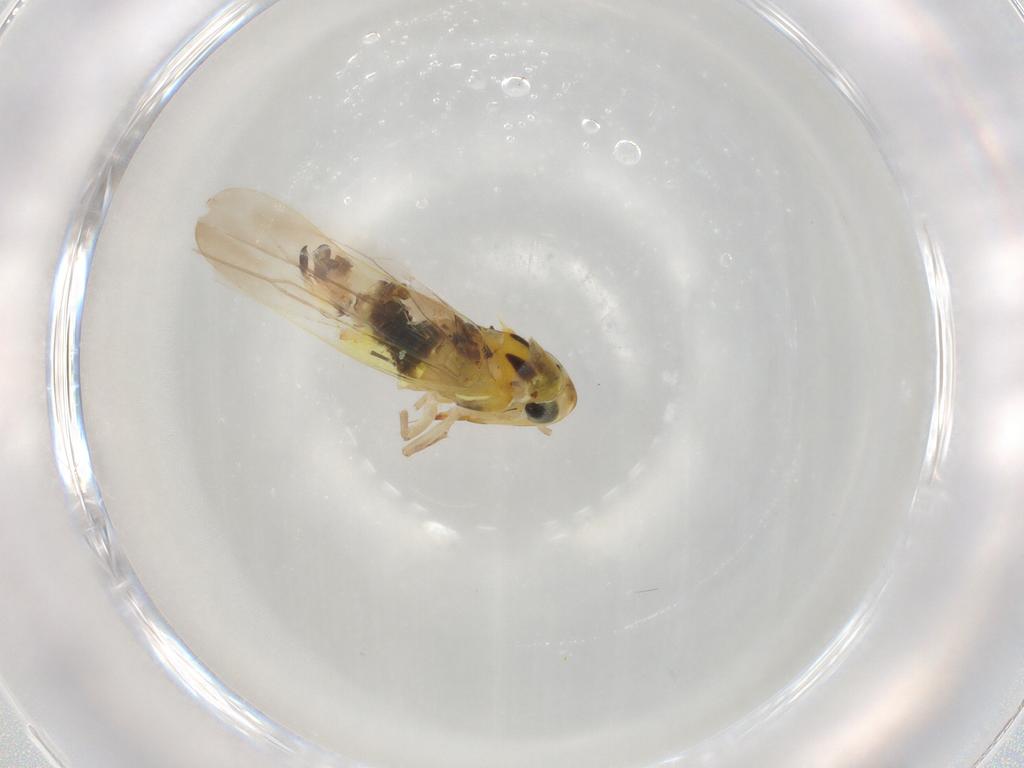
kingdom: Animalia
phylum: Arthropoda
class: Insecta
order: Hemiptera
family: Cicadellidae
